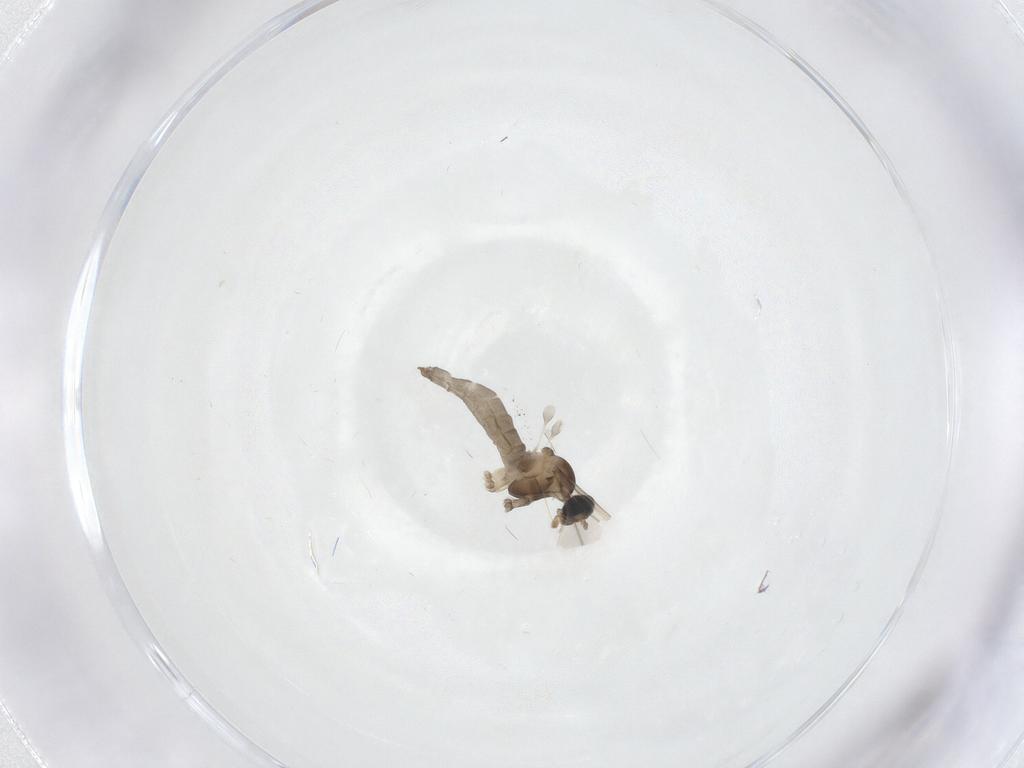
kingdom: Animalia
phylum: Arthropoda
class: Insecta
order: Diptera
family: Cecidomyiidae
